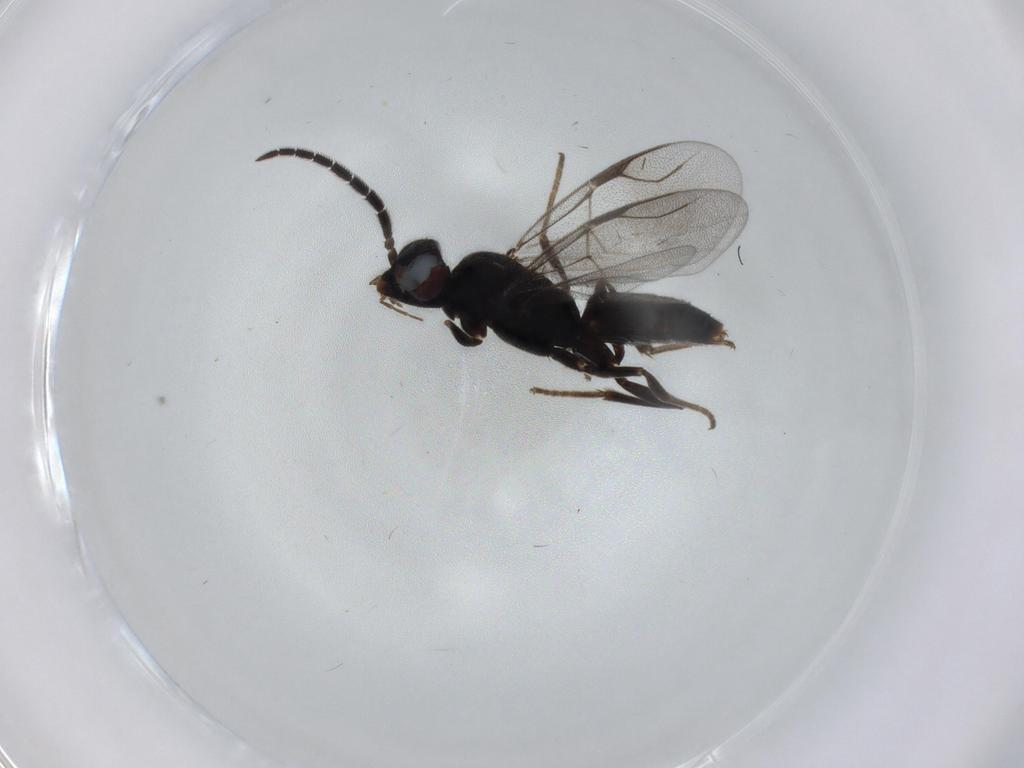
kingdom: Animalia
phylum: Arthropoda
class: Insecta
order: Hymenoptera
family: Dryinidae
